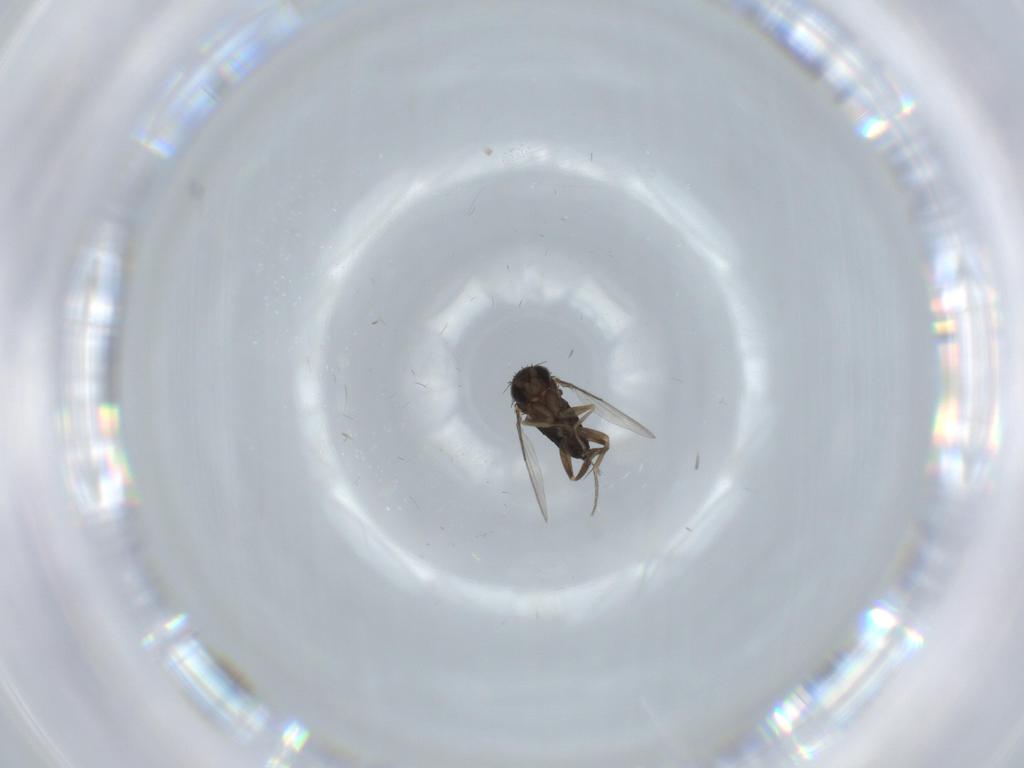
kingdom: Animalia
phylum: Arthropoda
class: Insecta
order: Diptera
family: Phoridae
